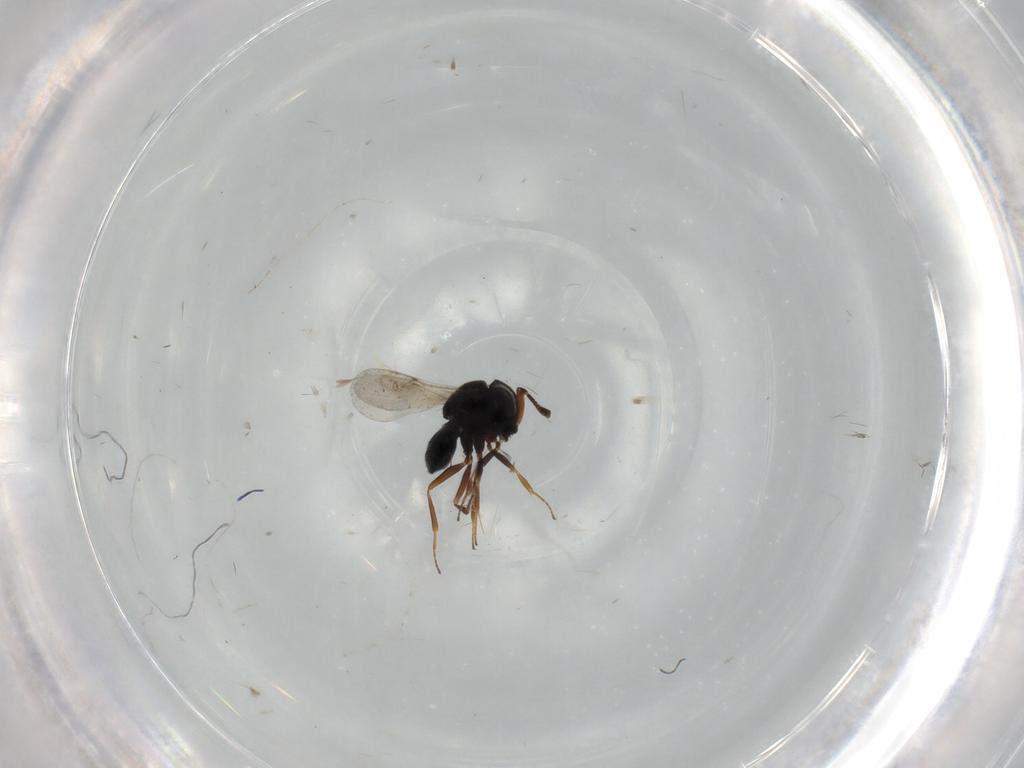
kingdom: Animalia
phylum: Arthropoda
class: Insecta
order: Hymenoptera
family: Scelionidae
